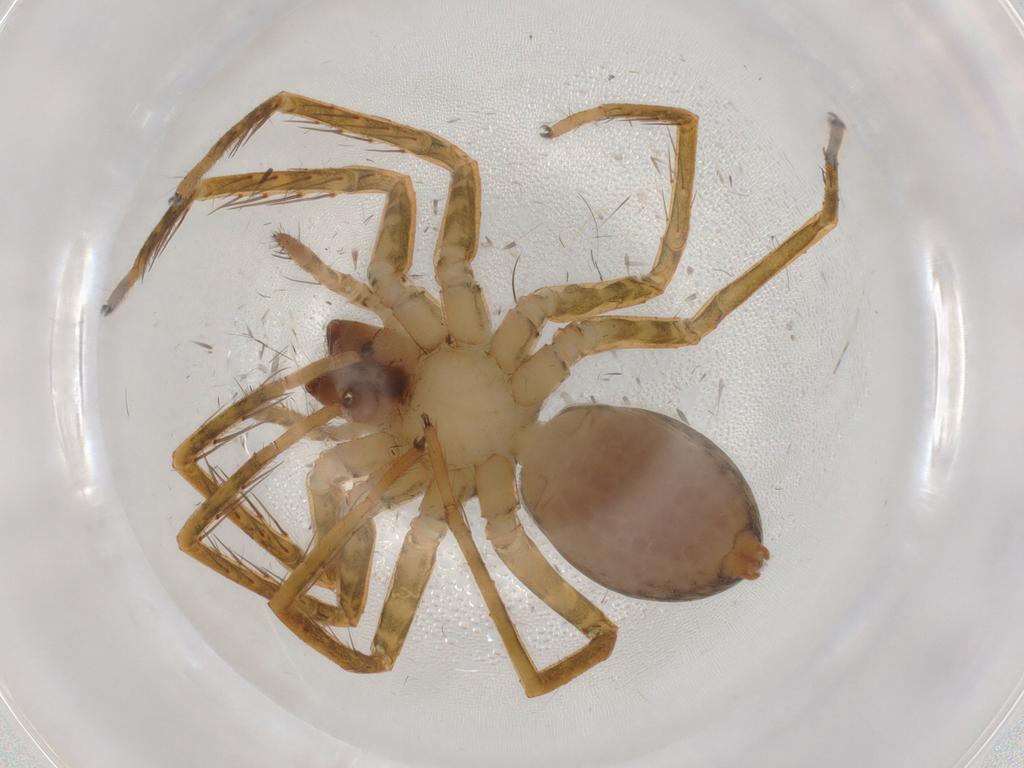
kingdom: Animalia
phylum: Arthropoda
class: Arachnida
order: Araneae
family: Ctenidae
